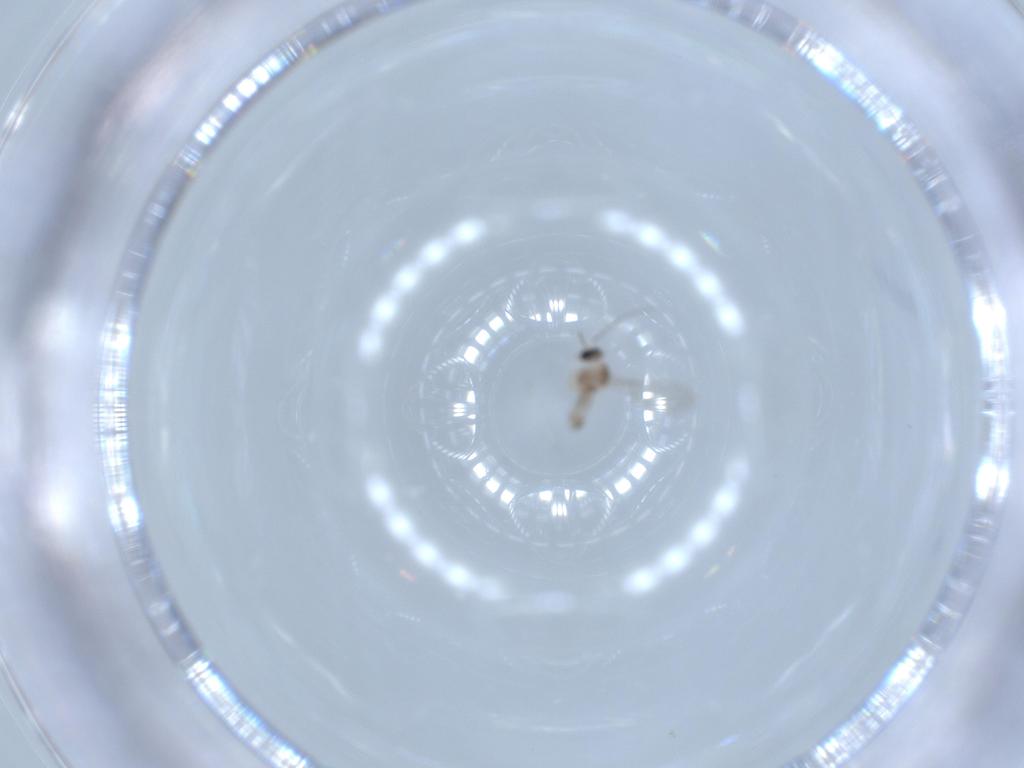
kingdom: Animalia
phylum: Arthropoda
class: Insecta
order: Diptera
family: Cecidomyiidae
